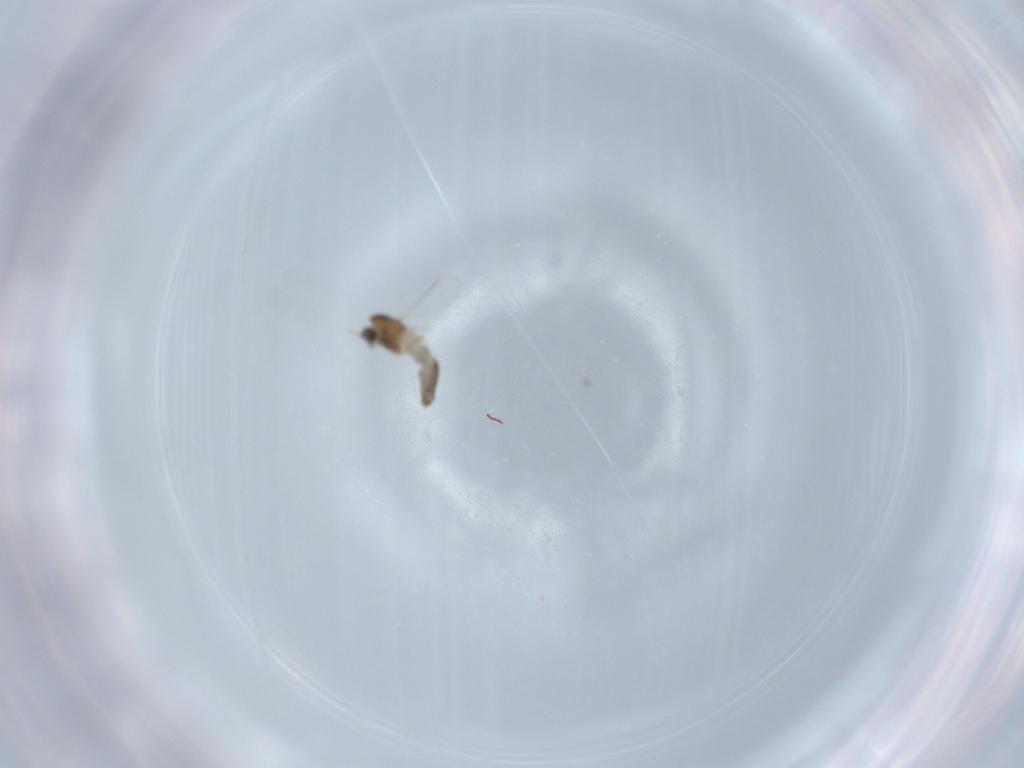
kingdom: Animalia
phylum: Arthropoda
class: Insecta
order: Diptera
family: Chironomidae
